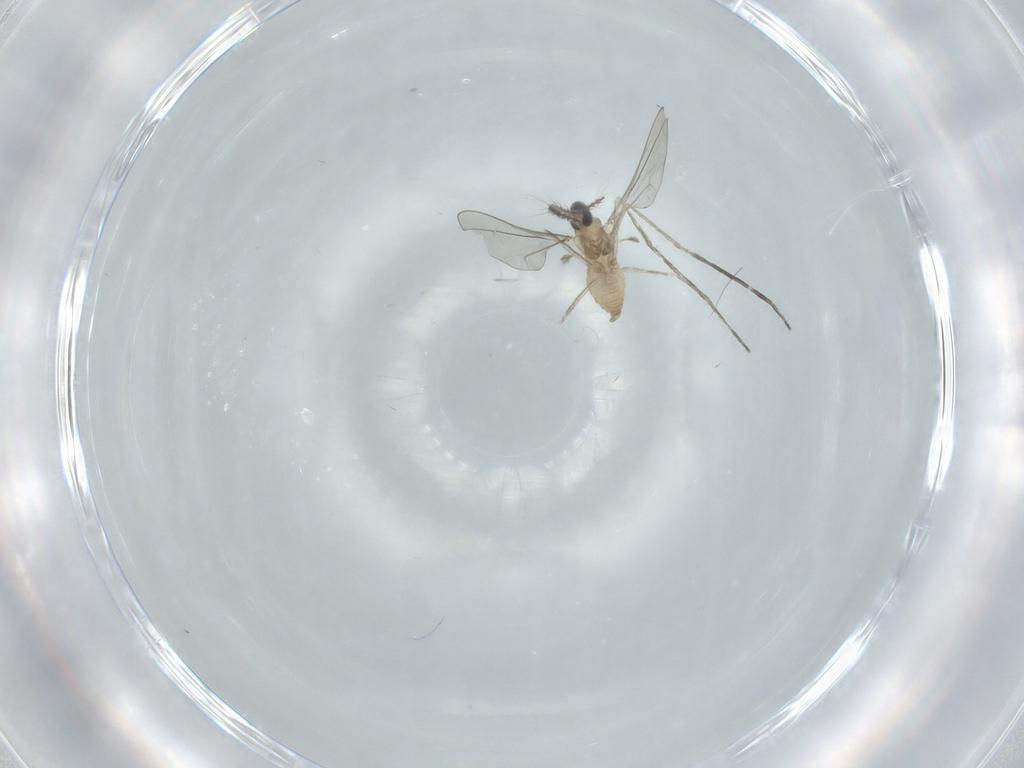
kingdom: Animalia
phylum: Arthropoda
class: Insecta
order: Diptera
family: Cecidomyiidae
